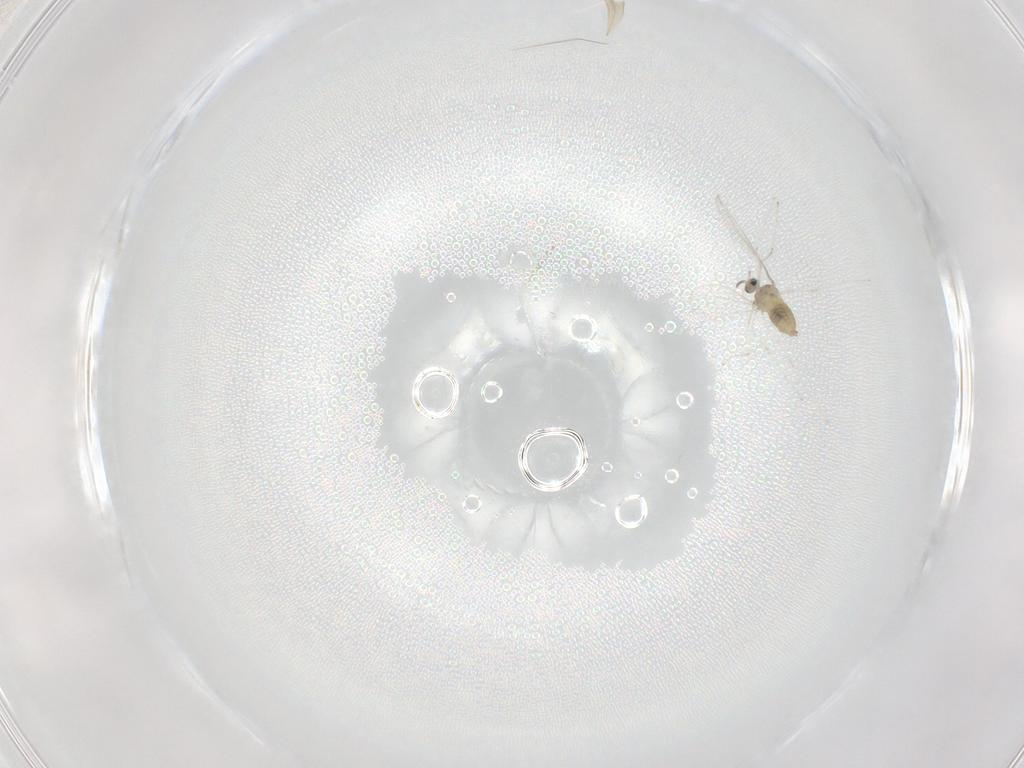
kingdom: Animalia
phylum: Arthropoda
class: Insecta
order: Diptera
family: Cecidomyiidae
